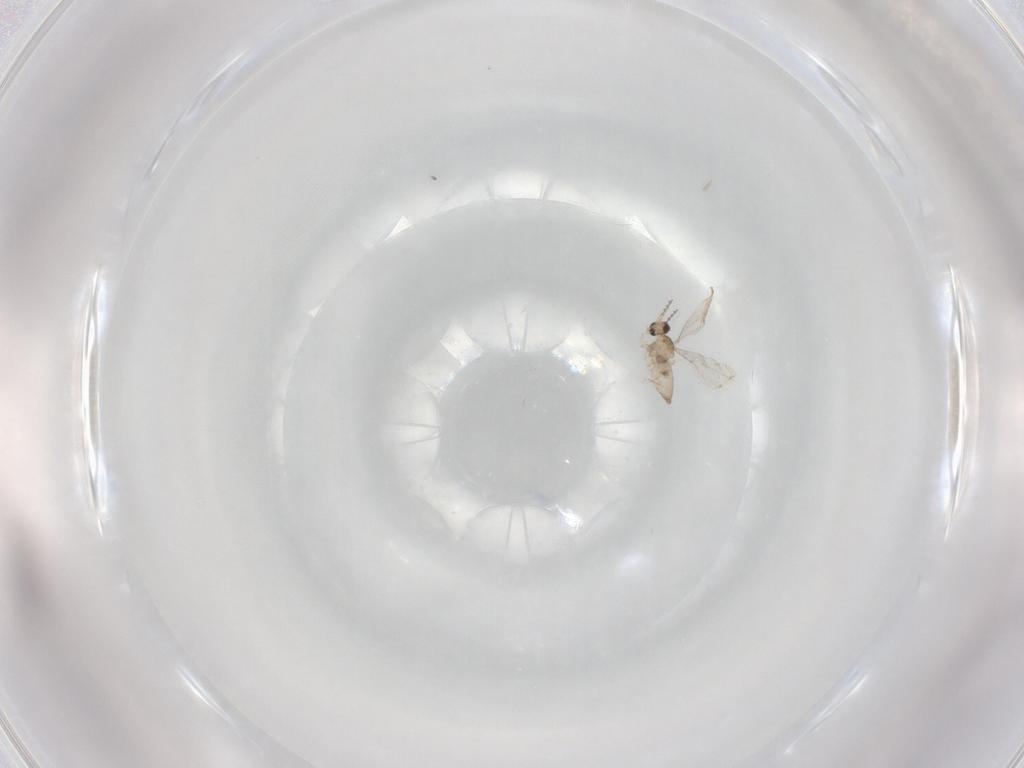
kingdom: Animalia
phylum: Arthropoda
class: Insecta
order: Diptera
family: Cecidomyiidae
